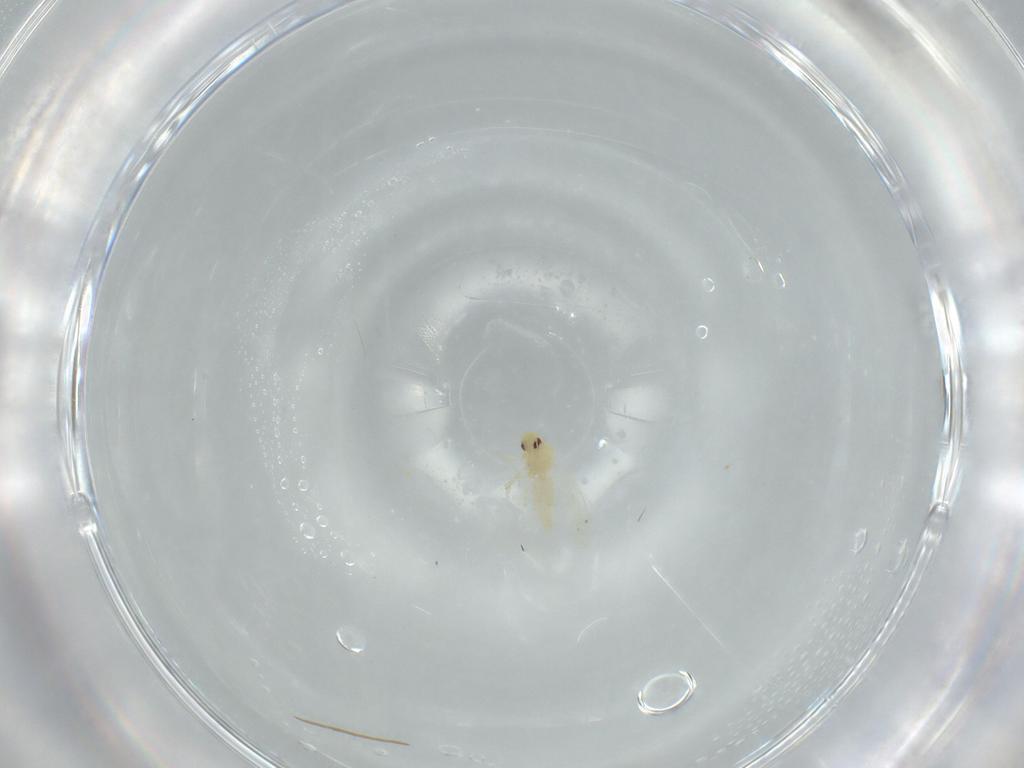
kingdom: Animalia
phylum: Arthropoda
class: Insecta
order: Hemiptera
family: Aleyrodidae
